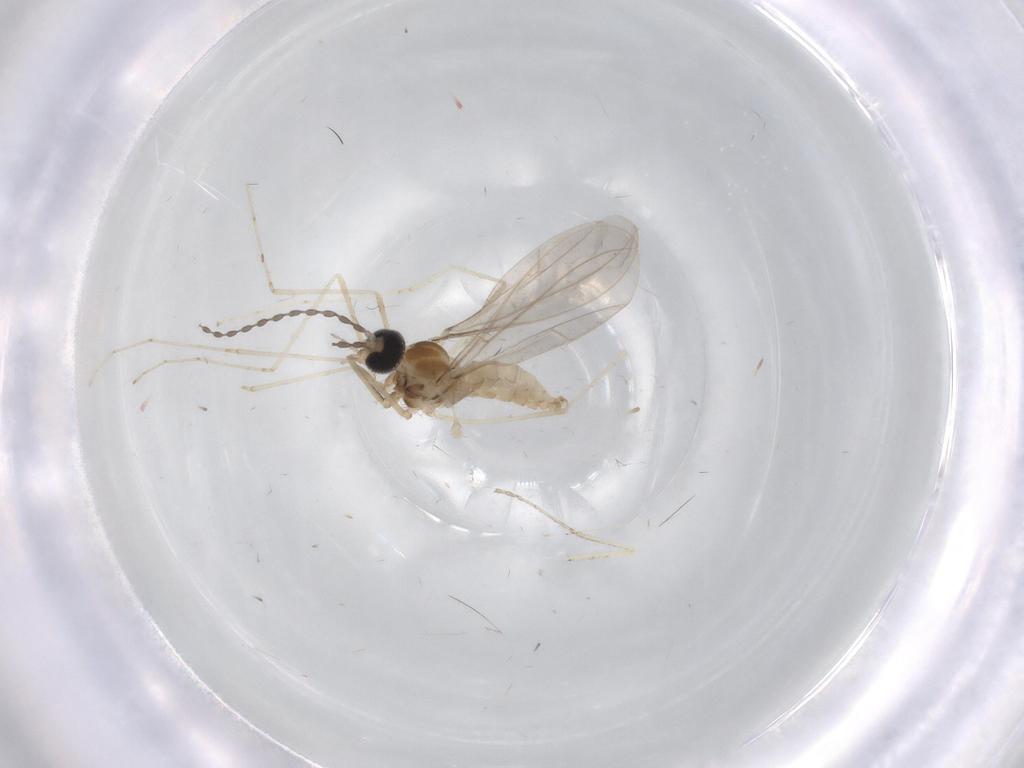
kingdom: Animalia
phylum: Arthropoda
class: Insecta
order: Diptera
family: Cecidomyiidae
